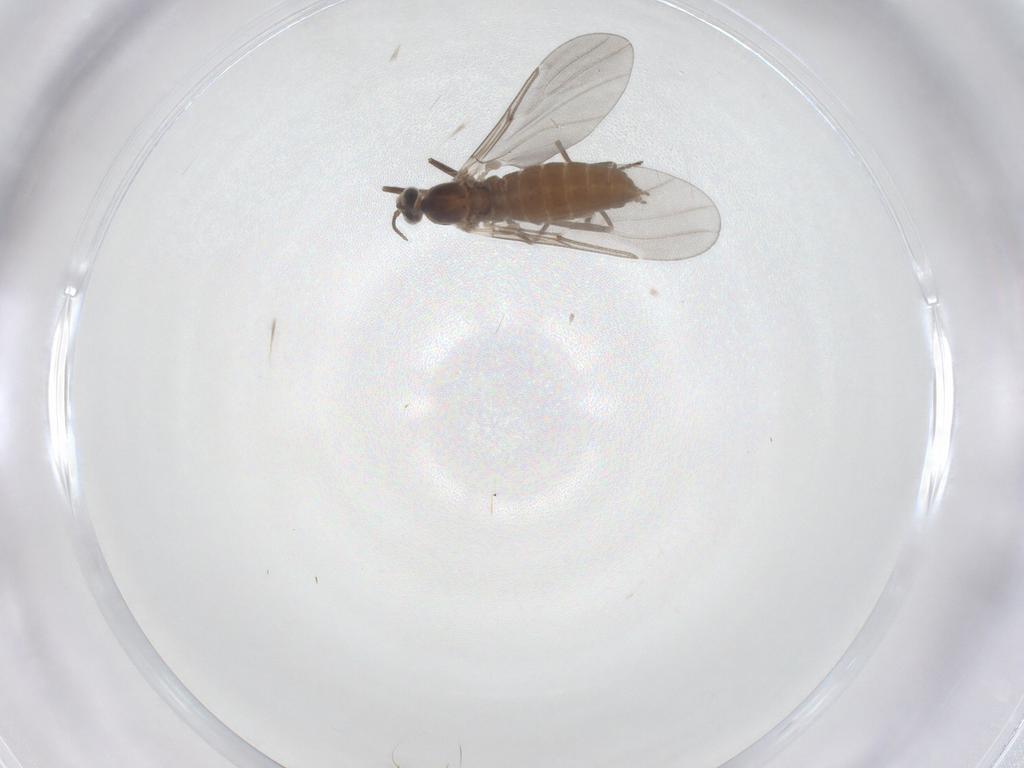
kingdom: Animalia
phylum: Arthropoda
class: Insecta
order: Diptera
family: Cecidomyiidae
